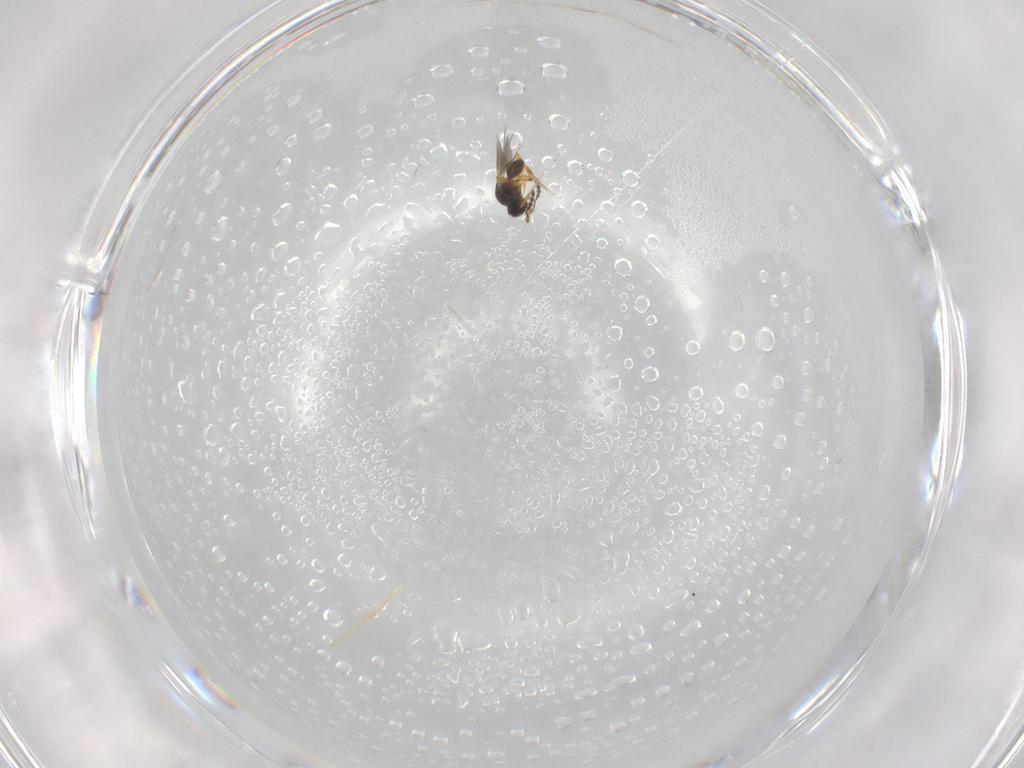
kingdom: Animalia
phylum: Arthropoda
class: Insecta
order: Hymenoptera
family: Platygastridae
